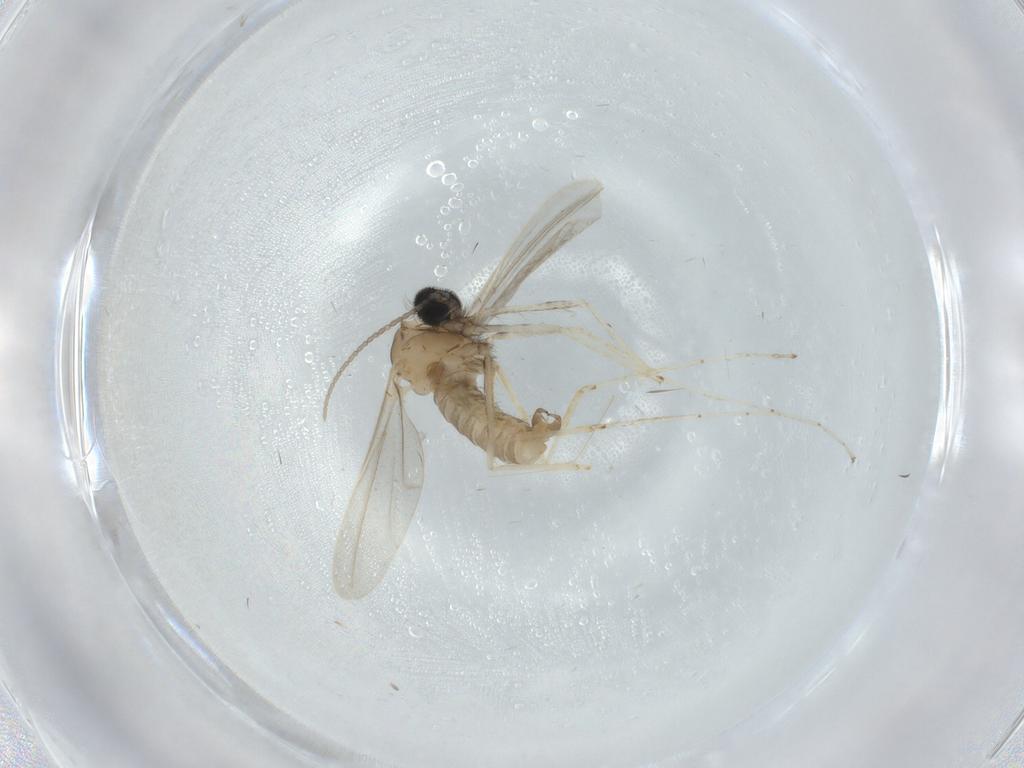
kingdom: Animalia
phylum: Arthropoda
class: Insecta
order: Diptera
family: Cecidomyiidae
